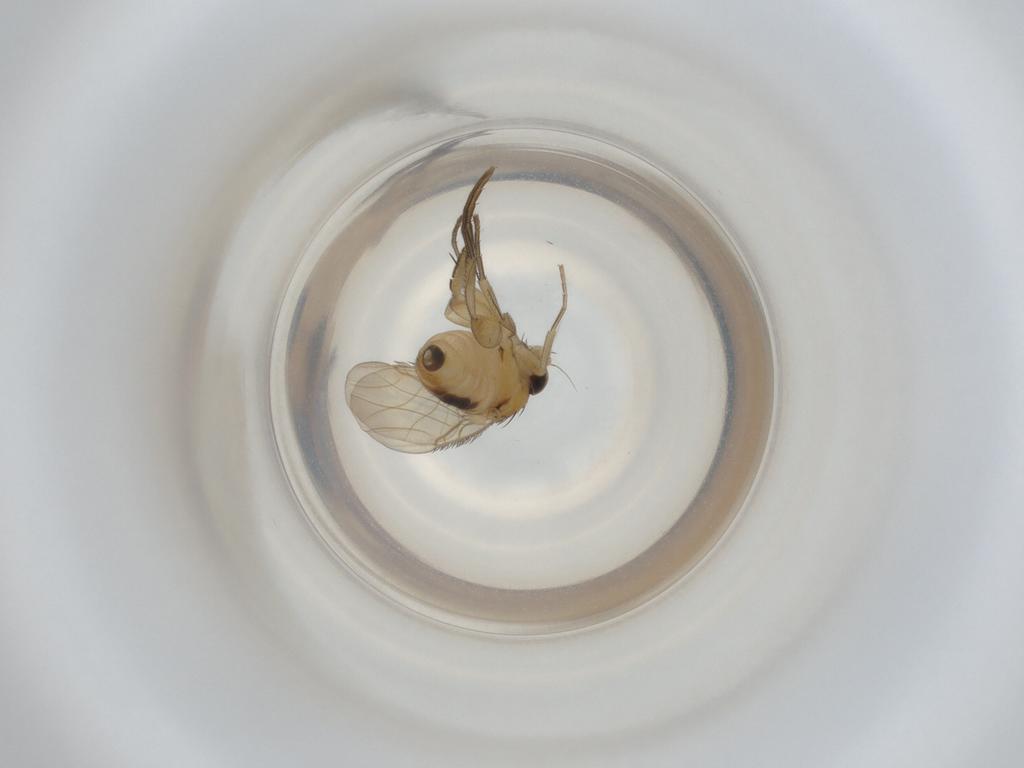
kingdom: Animalia
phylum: Arthropoda
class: Insecta
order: Diptera
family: Phoridae
